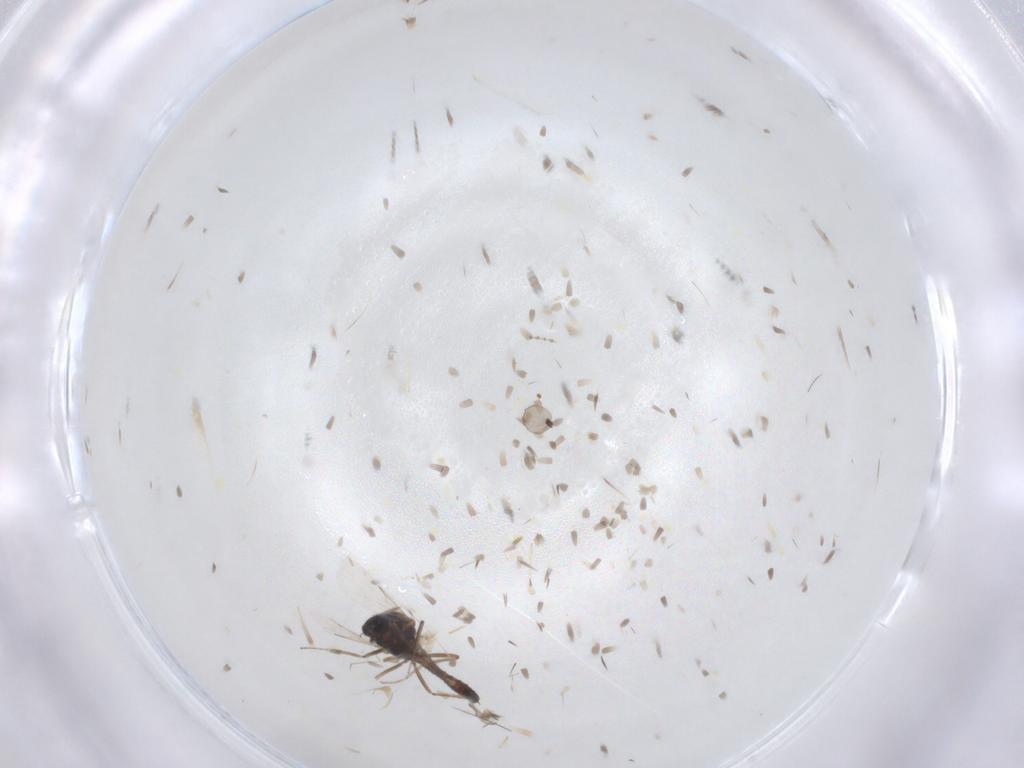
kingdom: Animalia
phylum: Arthropoda
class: Insecta
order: Diptera
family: Ceratopogonidae
